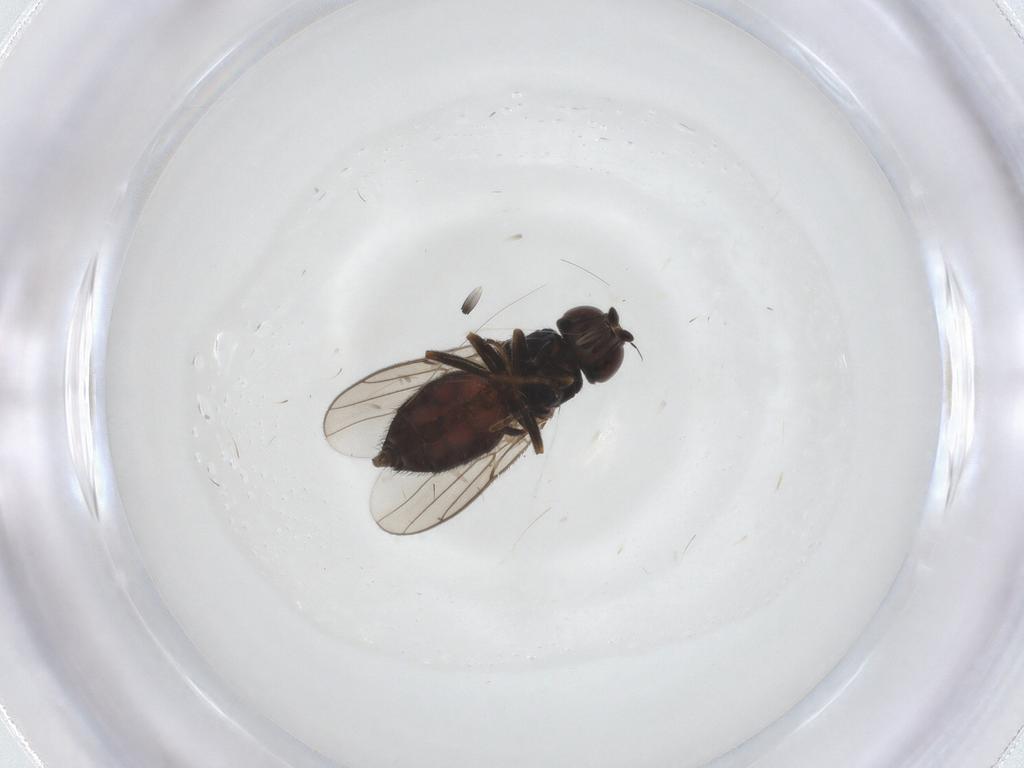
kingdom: Animalia
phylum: Arthropoda
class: Insecta
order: Diptera
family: Chloropidae
